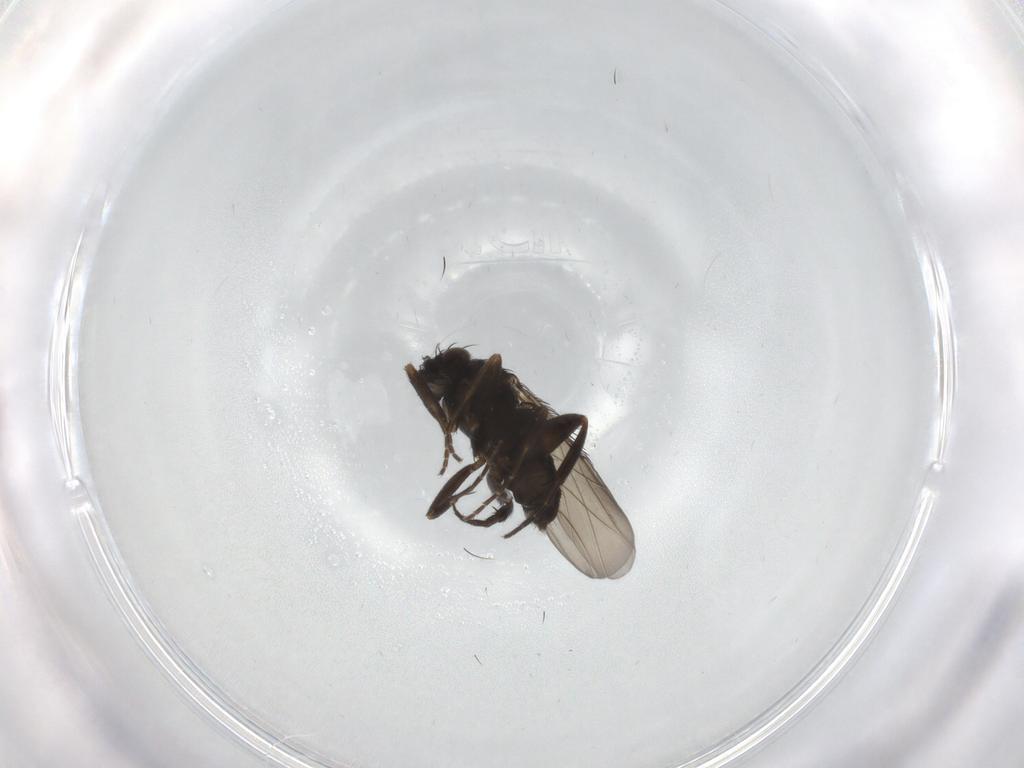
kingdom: Animalia
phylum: Arthropoda
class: Insecta
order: Diptera
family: Phoridae
